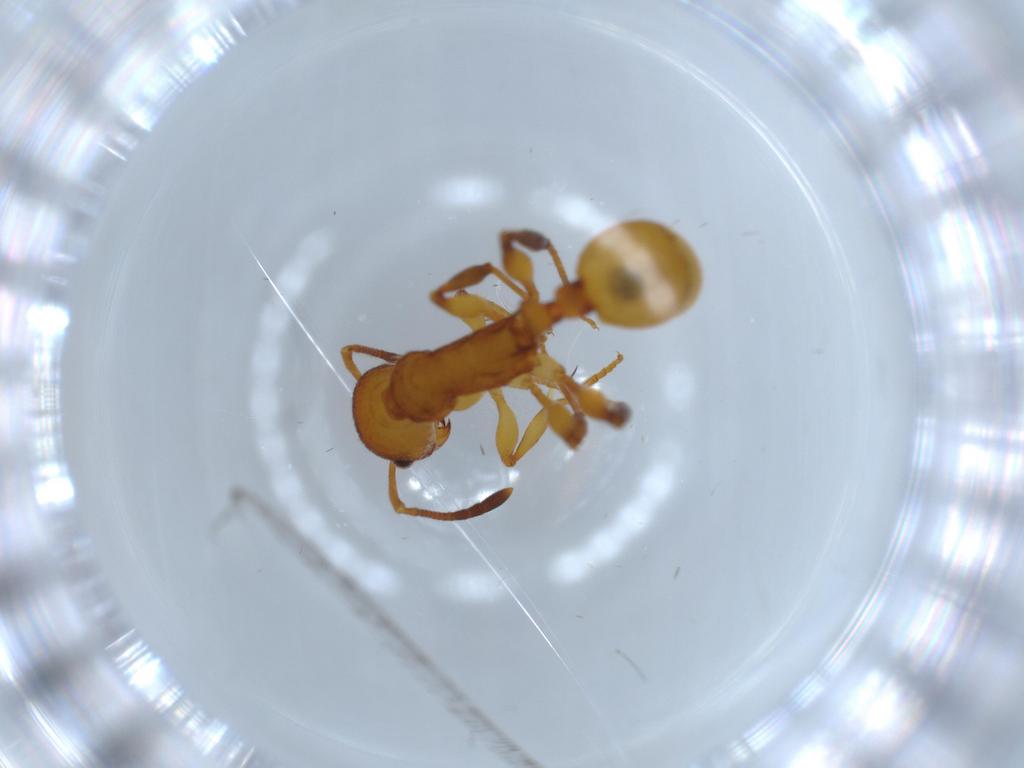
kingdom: Animalia
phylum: Arthropoda
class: Insecta
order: Hymenoptera
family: Formicidae
